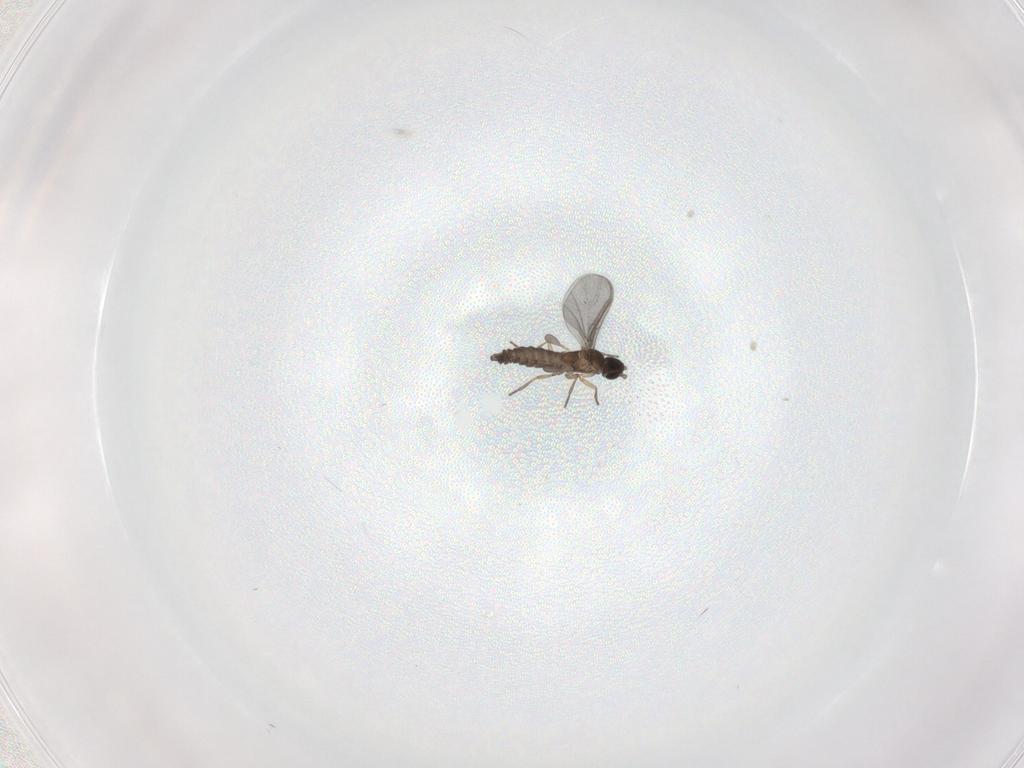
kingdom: Animalia
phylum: Arthropoda
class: Insecta
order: Diptera
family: Sciaridae
